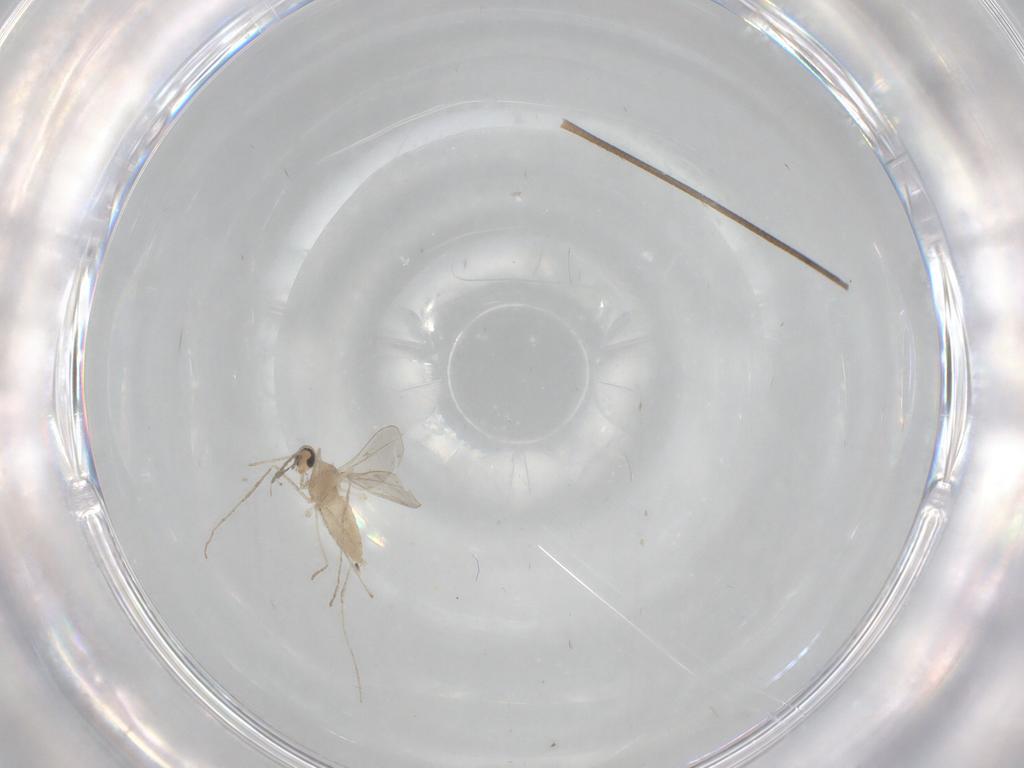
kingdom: Animalia
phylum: Arthropoda
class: Insecta
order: Diptera
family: Cecidomyiidae
